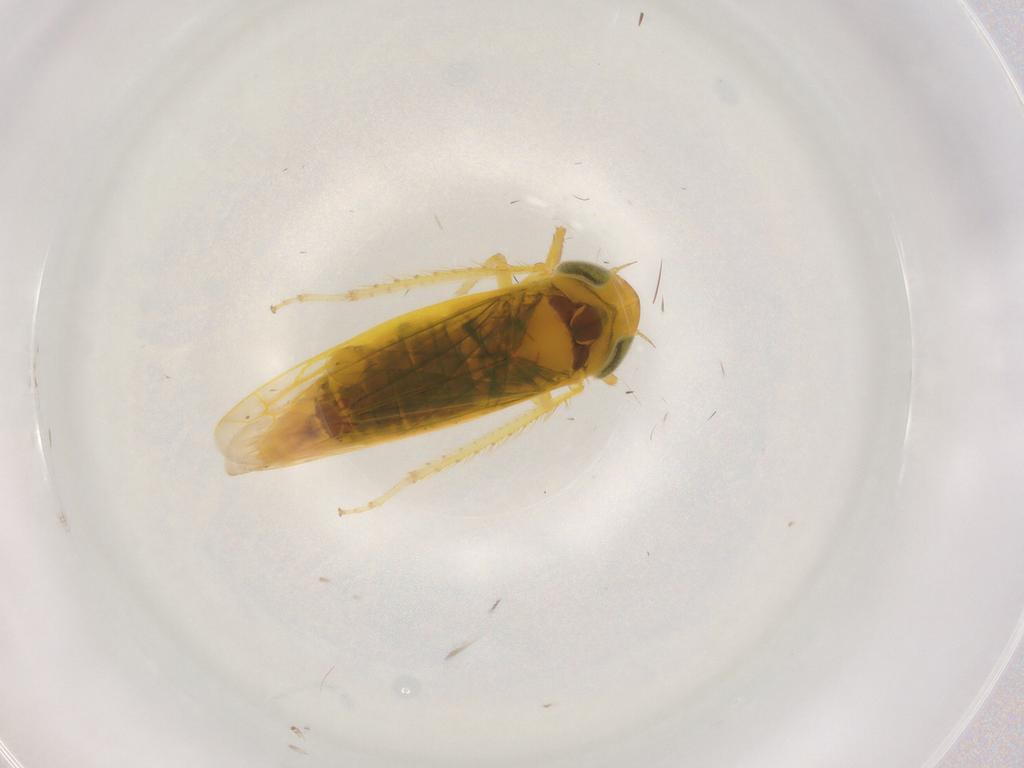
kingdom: Animalia
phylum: Arthropoda
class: Insecta
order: Hemiptera
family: Cicadellidae
